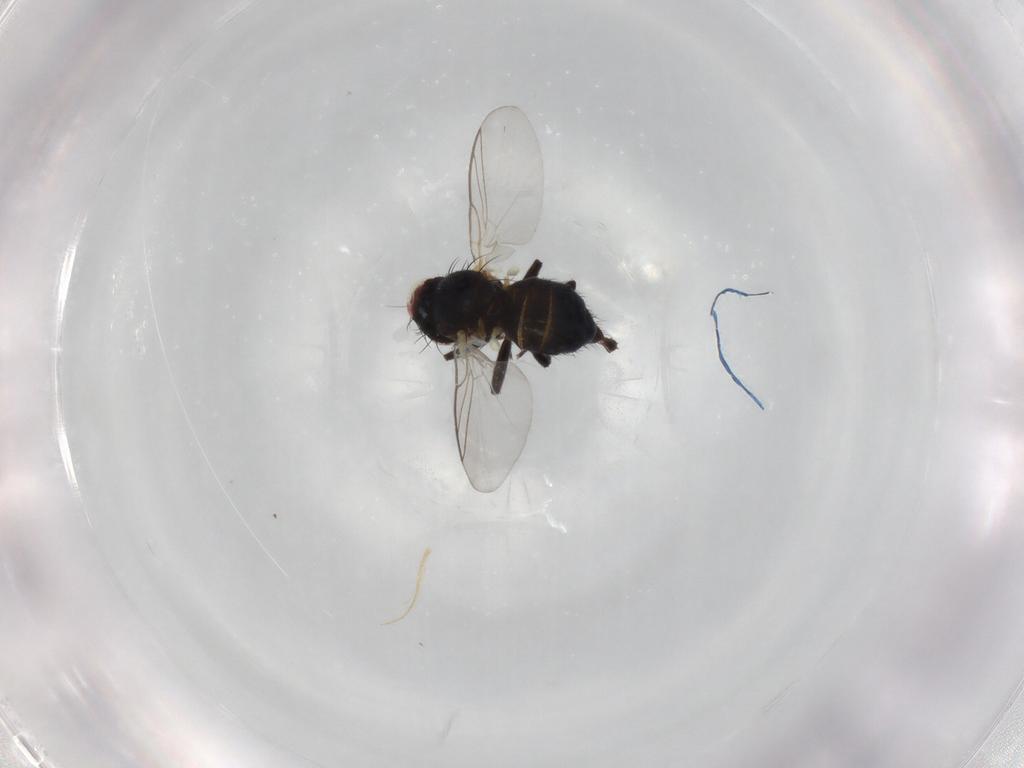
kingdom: Animalia
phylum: Arthropoda
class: Insecta
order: Diptera
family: Agromyzidae
